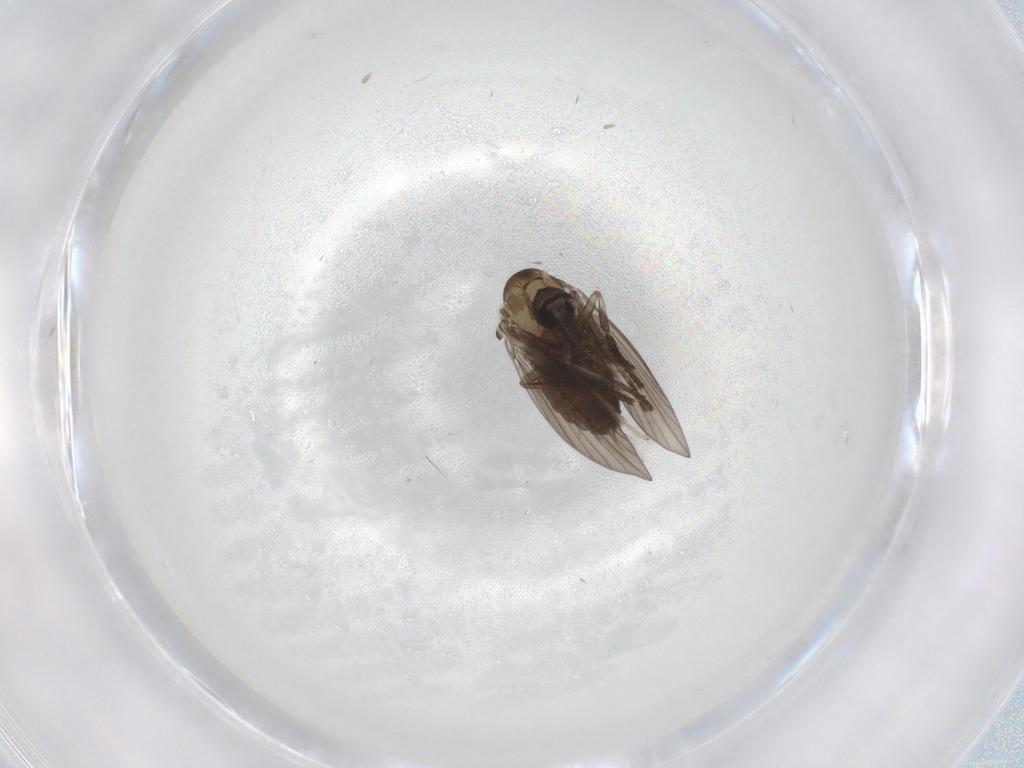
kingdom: Animalia
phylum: Arthropoda
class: Insecta
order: Diptera
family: Psychodidae
